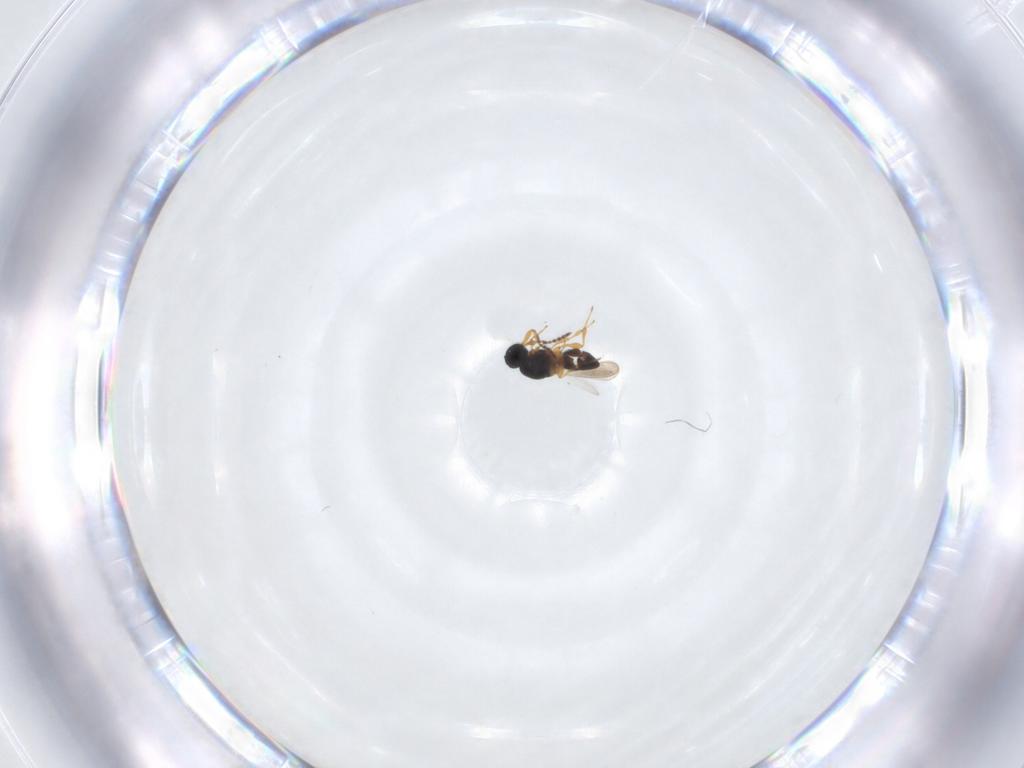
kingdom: Animalia
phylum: Arthropoda
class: Insecta
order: Hymenoptera
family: Platygastridae
